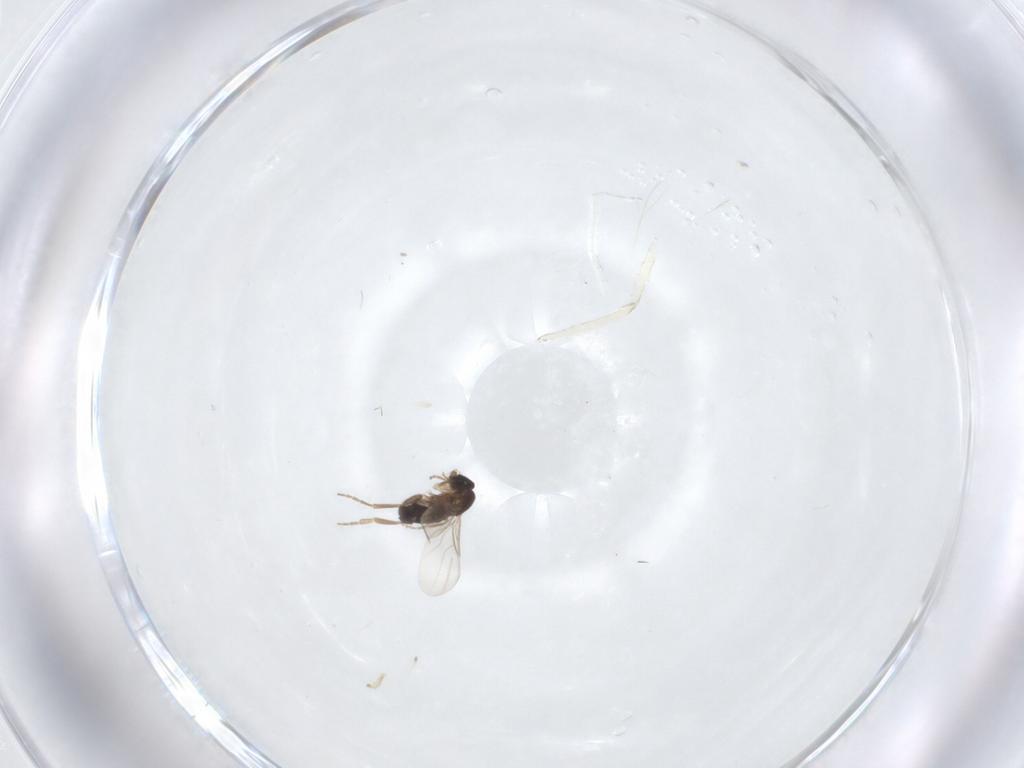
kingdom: Animalia
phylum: Arthropoda
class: Insecta
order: Diptera
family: Phoridae
